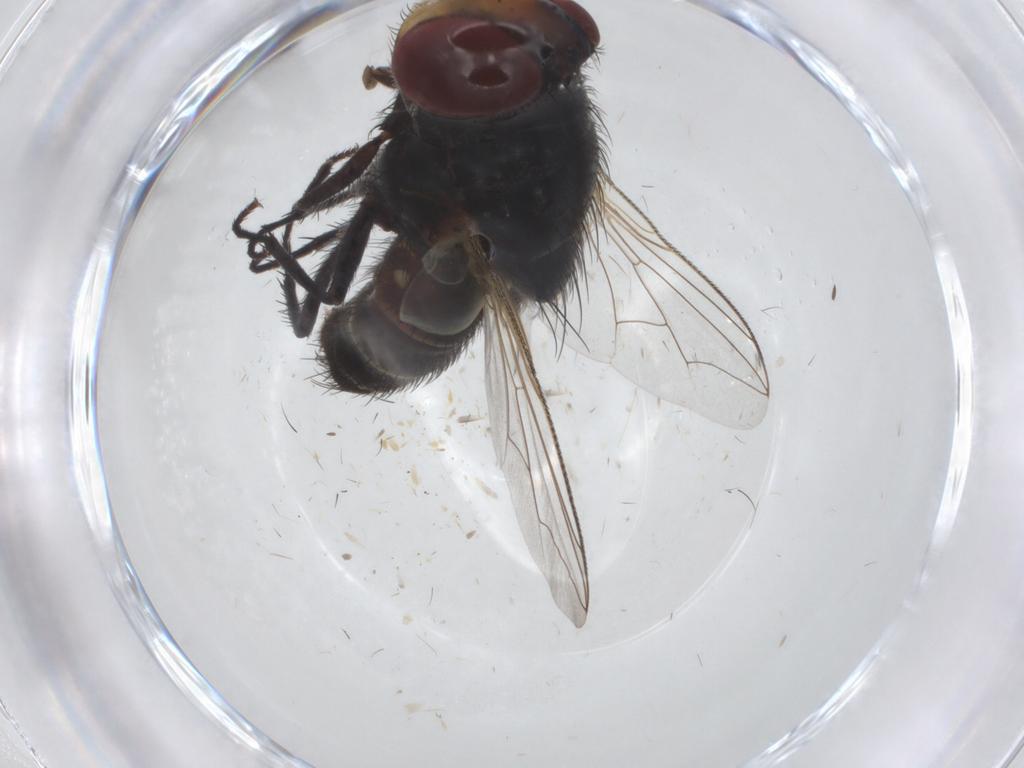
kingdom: Animalia
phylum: Arthropoda
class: Insecta
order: Diptera
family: Sarcophagidae
